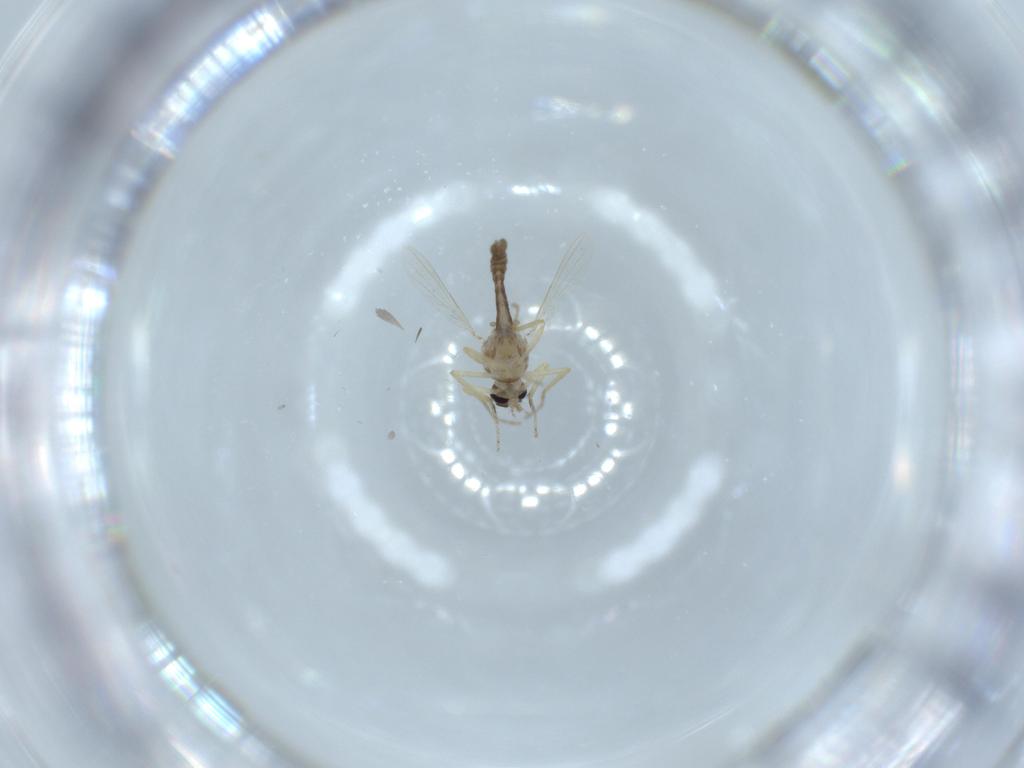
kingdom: Animalia
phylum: Arthropoda
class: Insecta
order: Diptera
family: Ceratopogonidae
